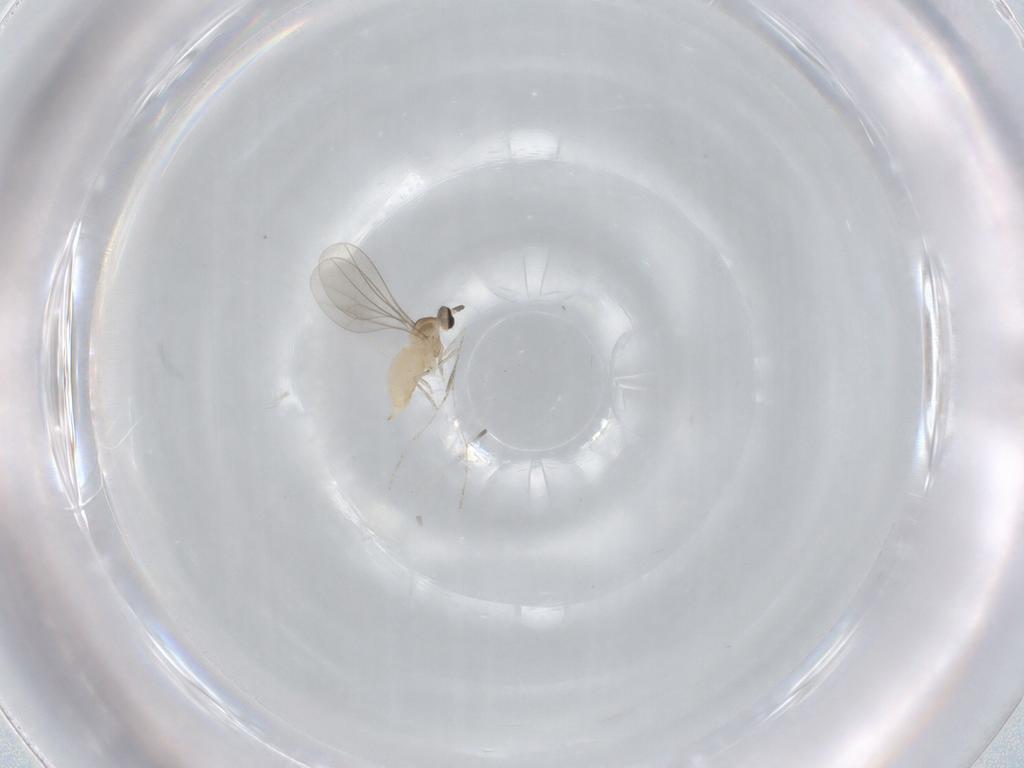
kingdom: Animalia
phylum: Arthropoda
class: Insecta
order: Diptera
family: Cecidomyiidae
